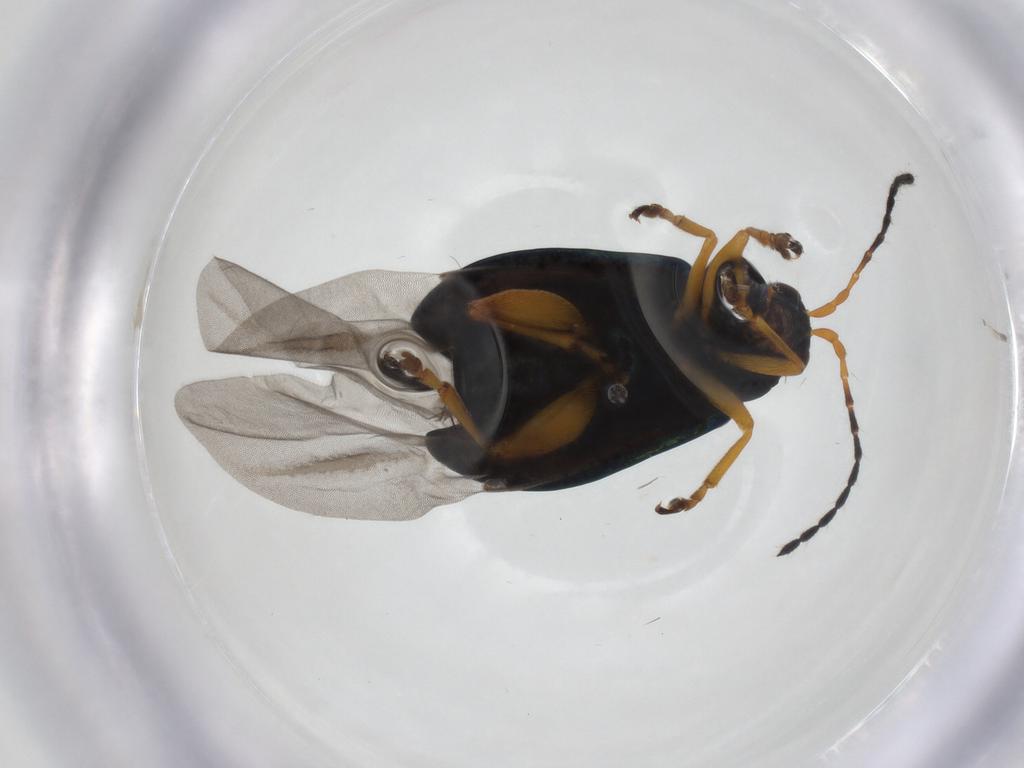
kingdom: Animalia
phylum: Arthropoda
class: Insecta
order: Coleoptera
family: Chrysomelidae
